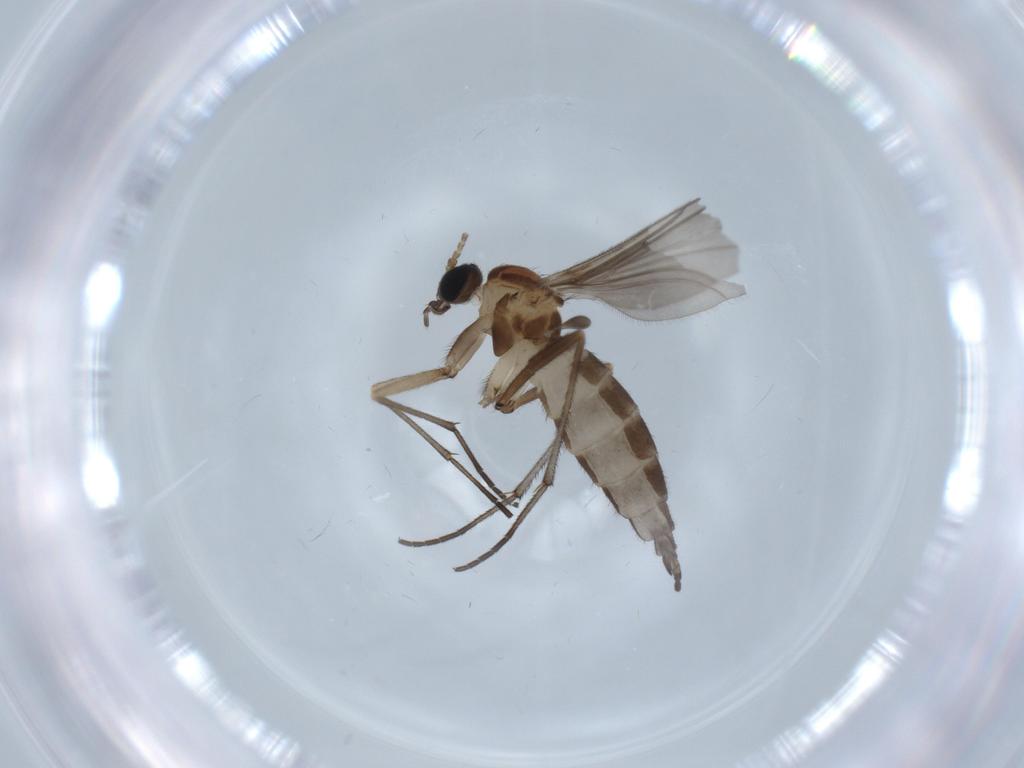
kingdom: Animalia
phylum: Arthropoda
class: Insecta
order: Diptera
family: Sciaridae
